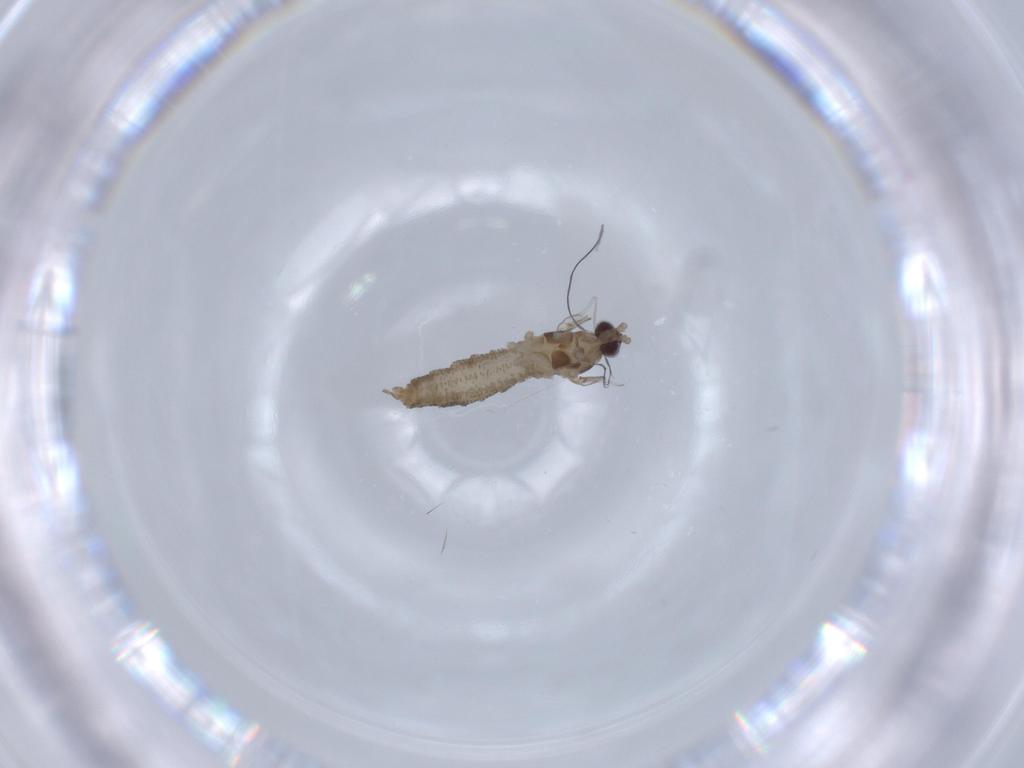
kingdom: Animalia
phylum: Arthropoda
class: Insecta
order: Diptera
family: Cecidomyiidae
